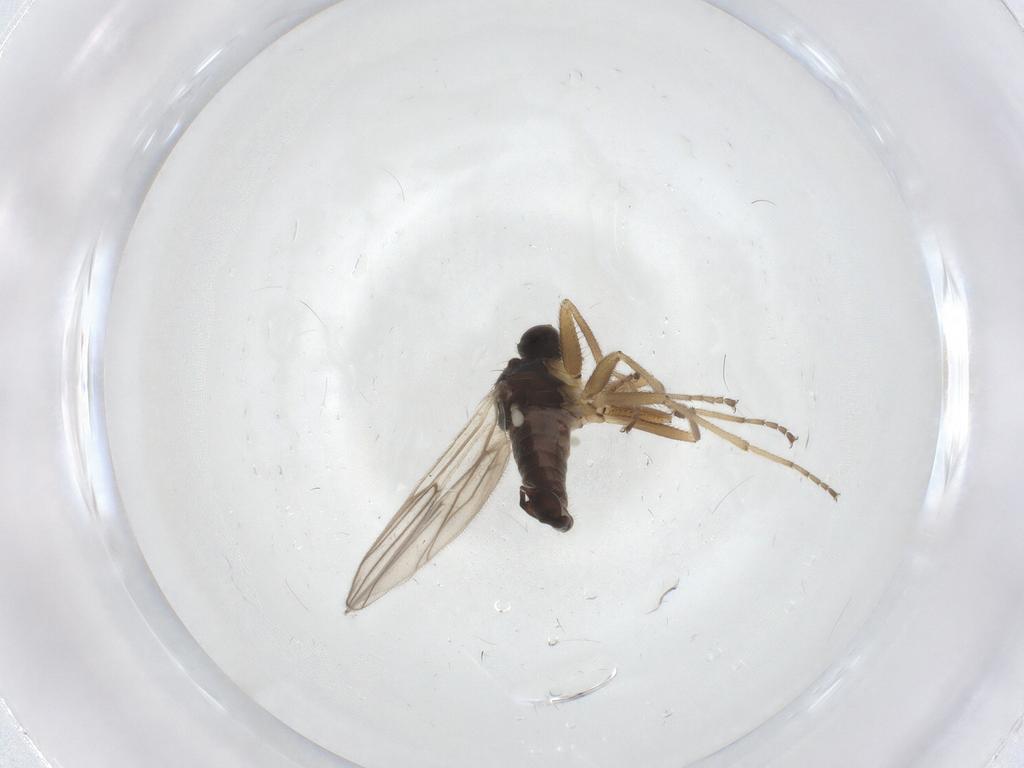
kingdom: Animalia
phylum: Arthropoda
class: Insecta
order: Diptera
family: Hybotidae
